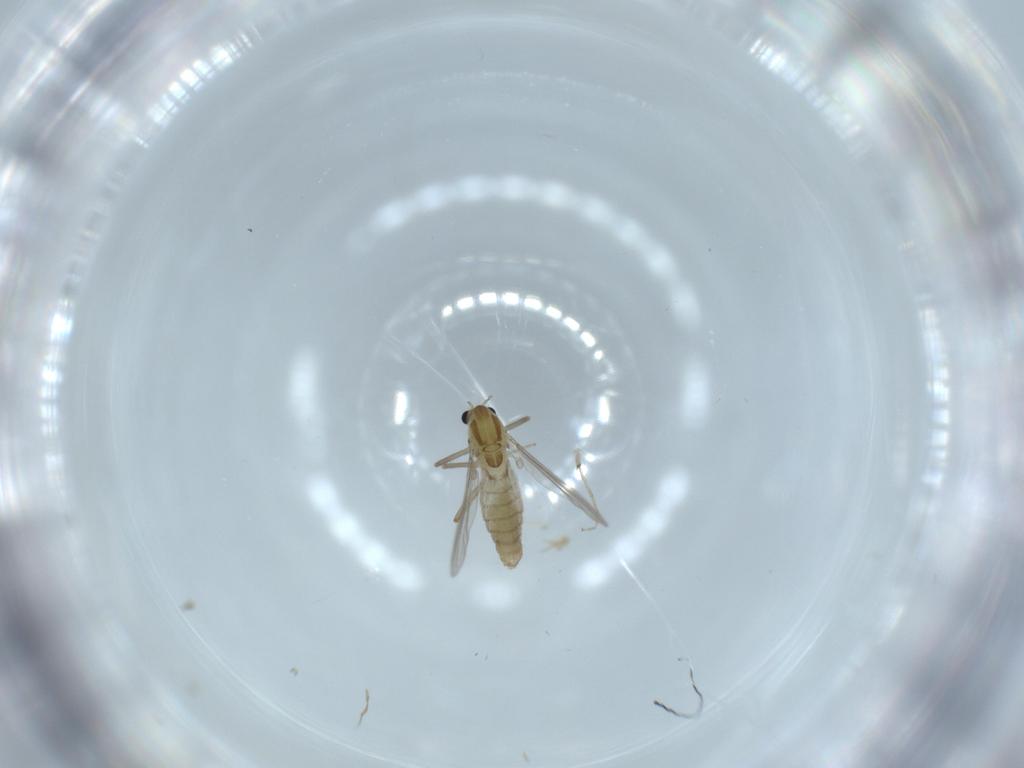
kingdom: Animalia
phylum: Arthropoda
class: Insecta
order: Diptera
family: Chironomidae
